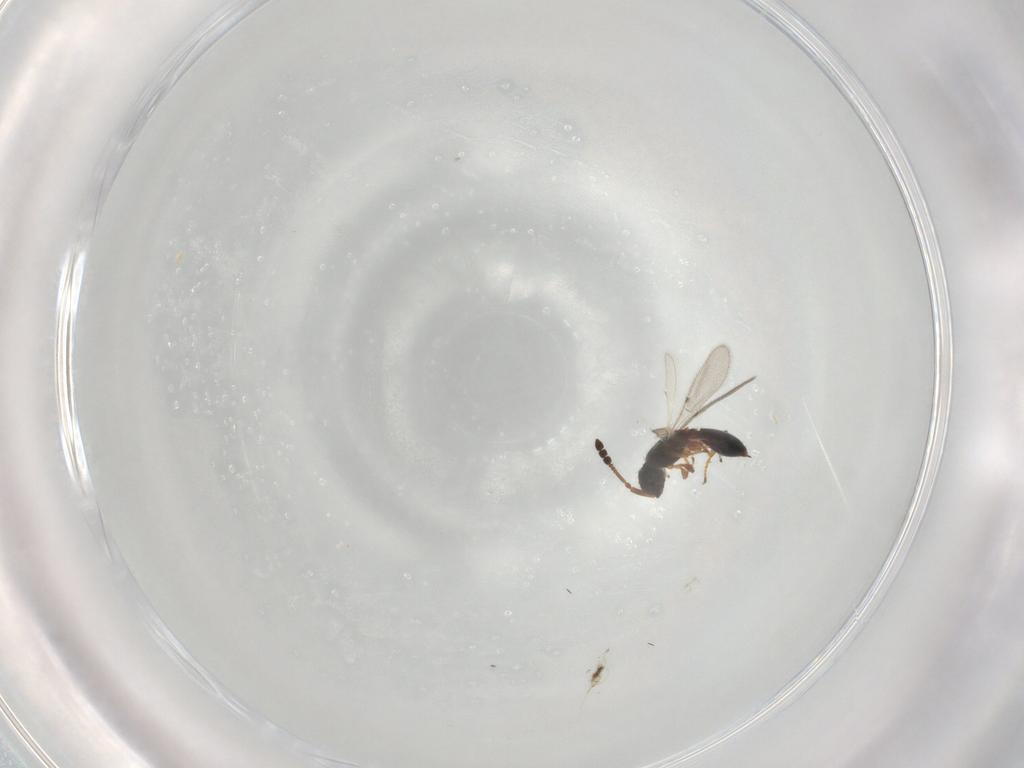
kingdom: Animalia
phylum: Arthropoda
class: Insecta
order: Hymenoptera
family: Diapriidae
